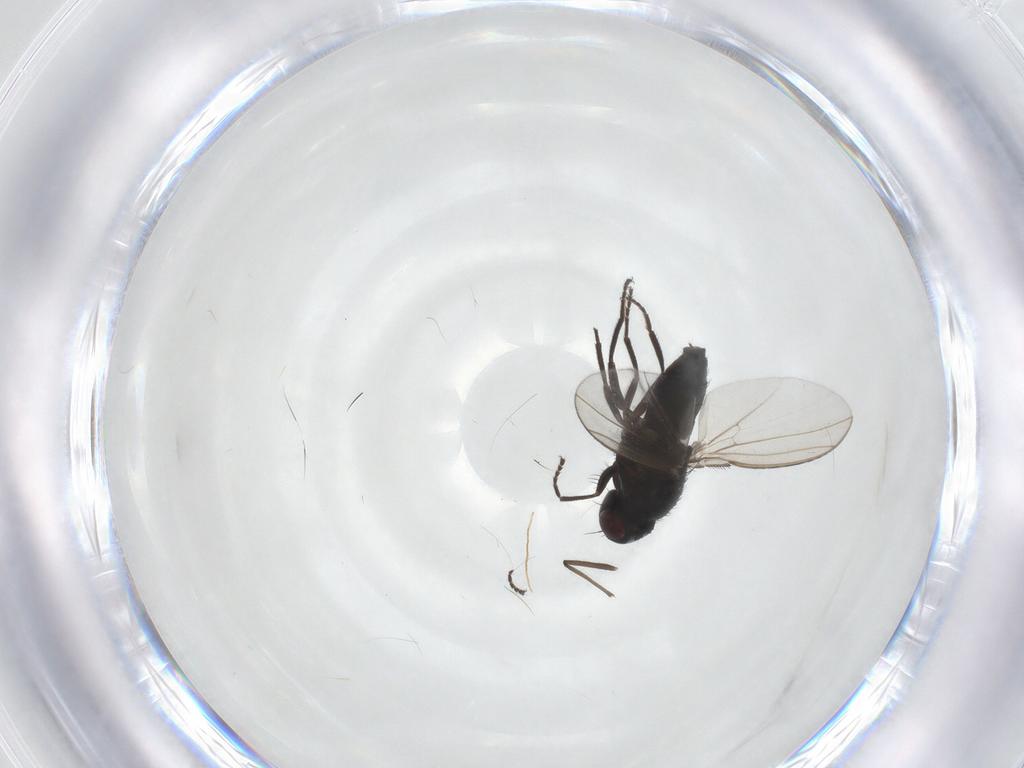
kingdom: Animalia
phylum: Arthropoda
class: Insecta
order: Diptera
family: Carnidae
